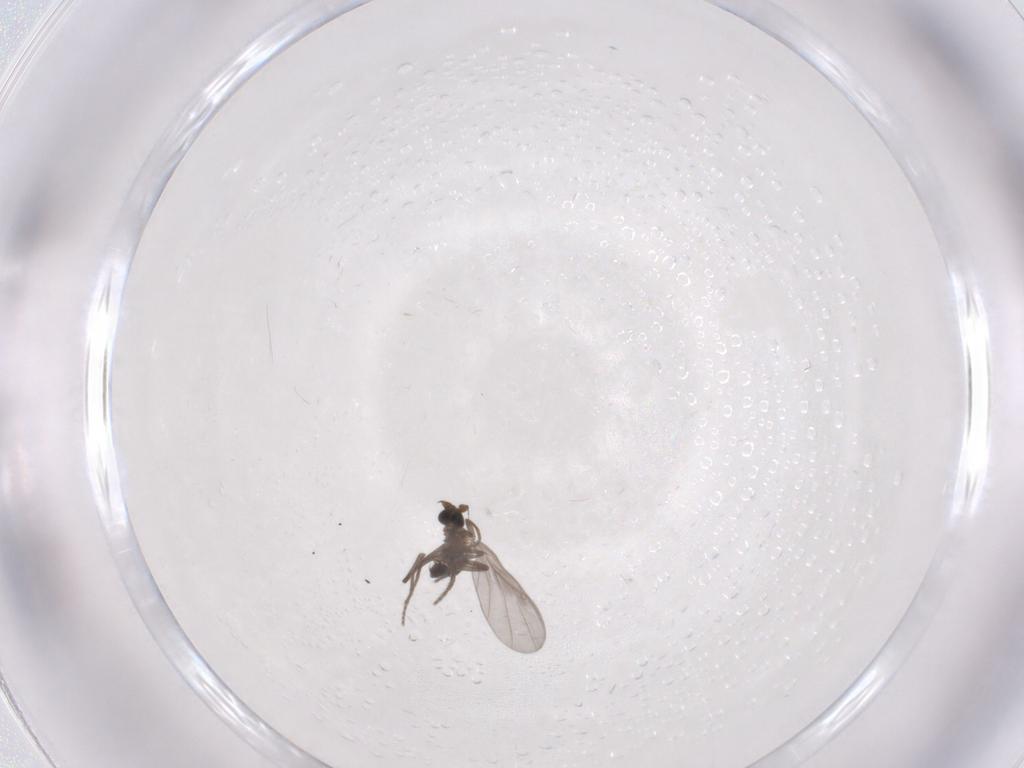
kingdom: Animalia
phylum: Arthropoda
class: Insecta
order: Diptera
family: Phoridae
